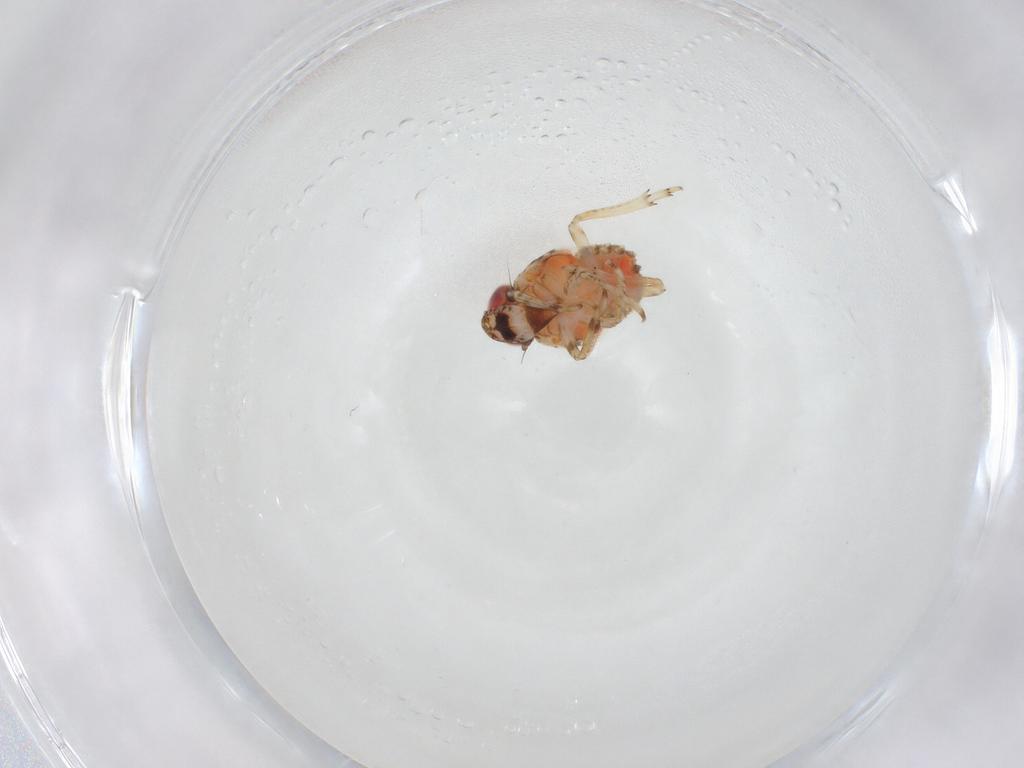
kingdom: Animalia
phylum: Arthropoda
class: Insecta
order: Hemiptera
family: Issidae
